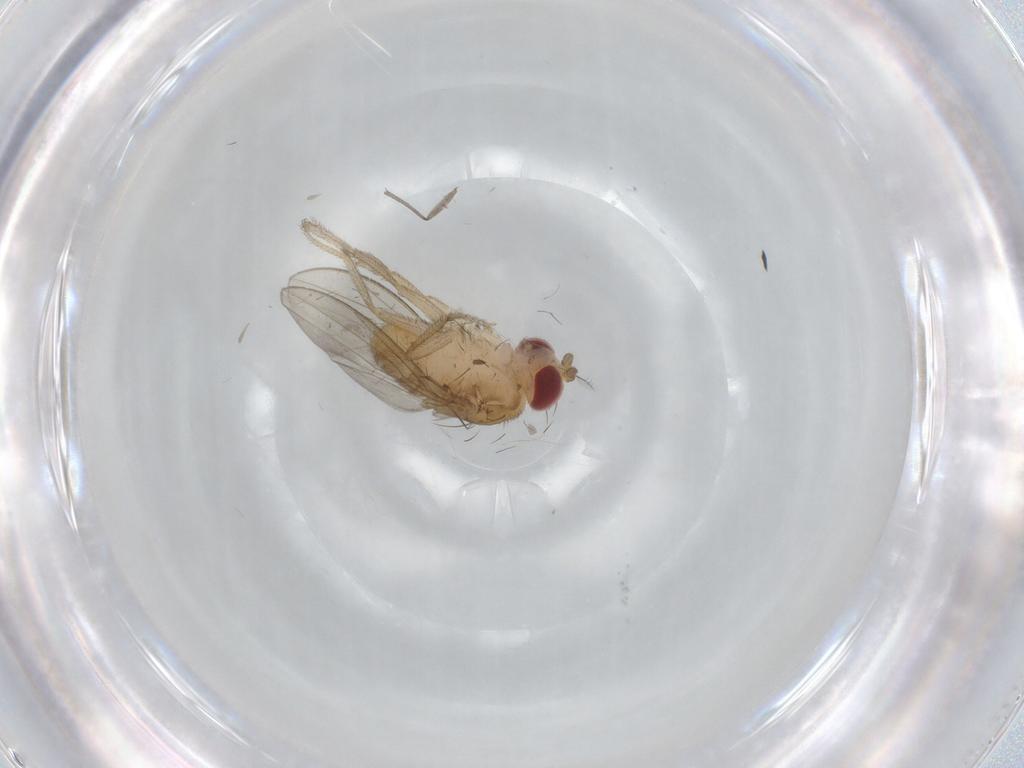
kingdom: Animalia
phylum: Arthropoda
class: Insecta
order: Diptera
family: Drosophilidae
